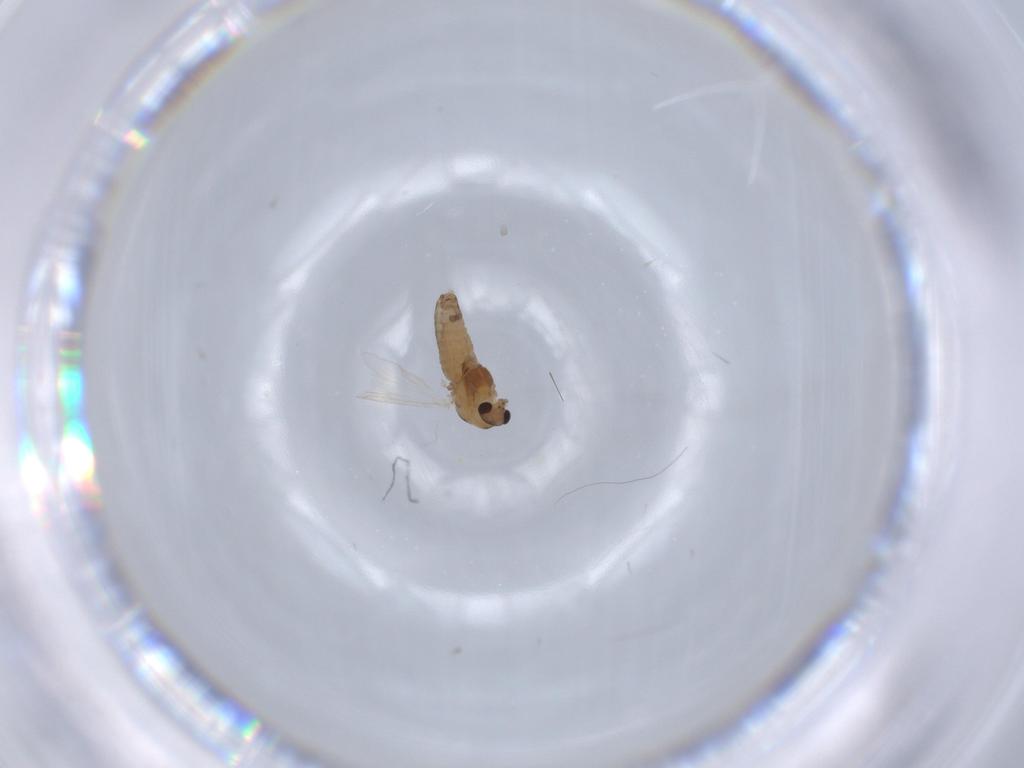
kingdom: Animalia
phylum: Arthropoda
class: Insecta
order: Diptera
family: Chironomidae
